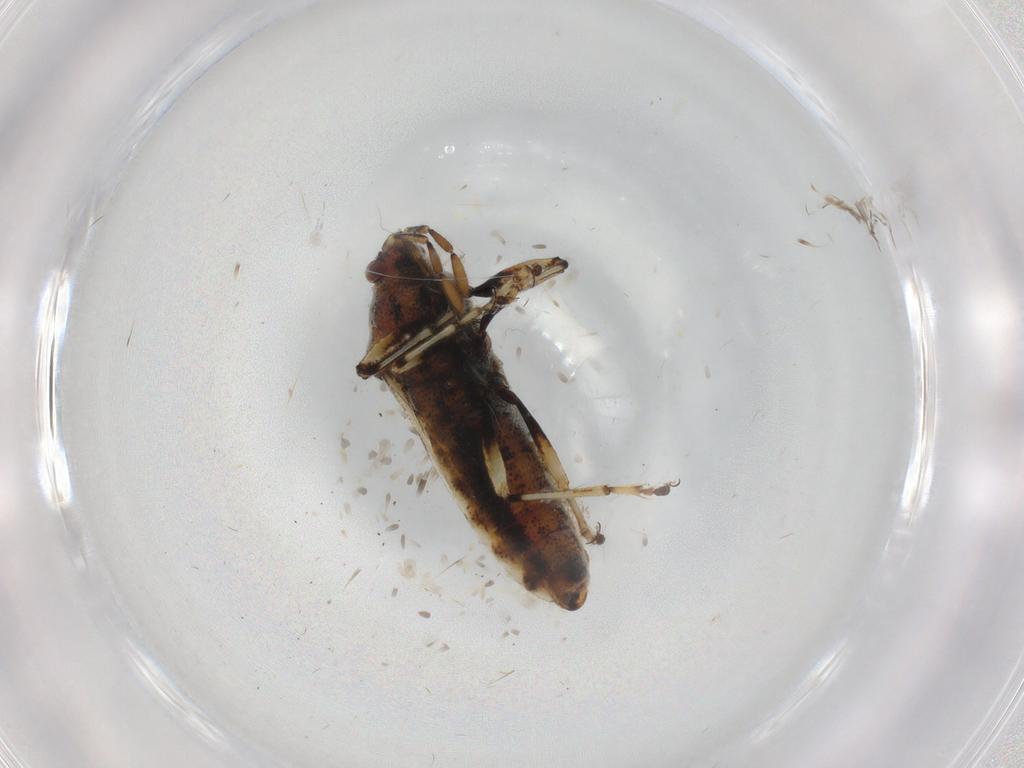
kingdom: Animalia
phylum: Arthropoda
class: Insecta
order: Hemiptera
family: Pachygronthidae
